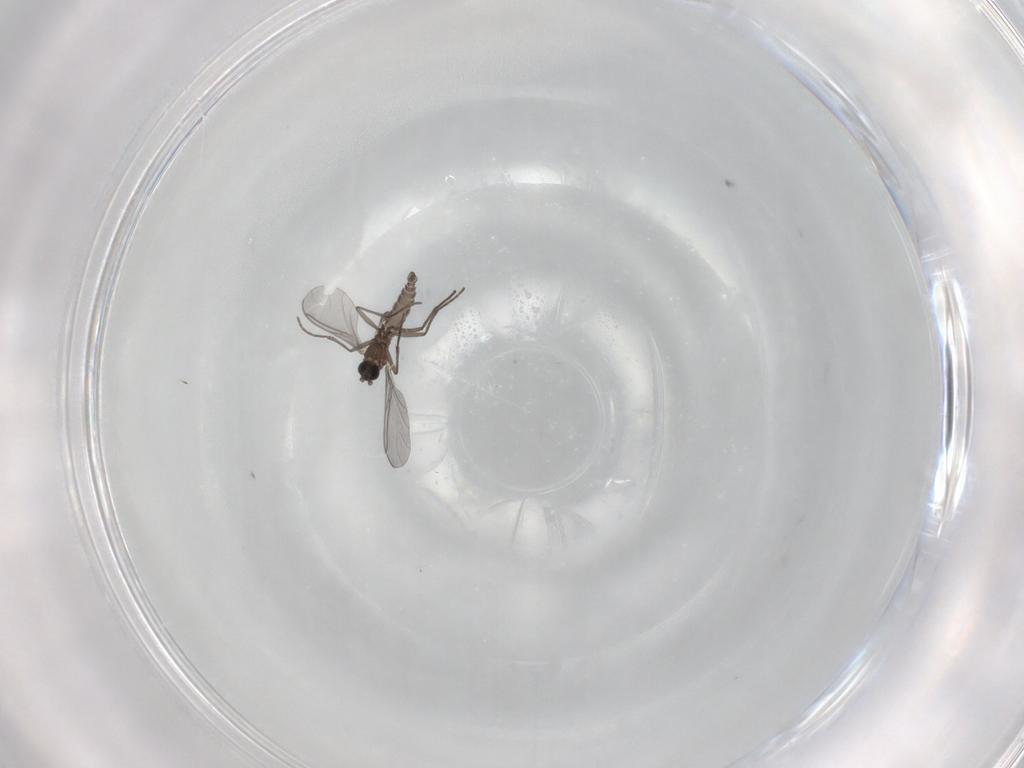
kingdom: Animalia
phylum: Arthropoda
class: Insecta
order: Diptera
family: Sciaridae
